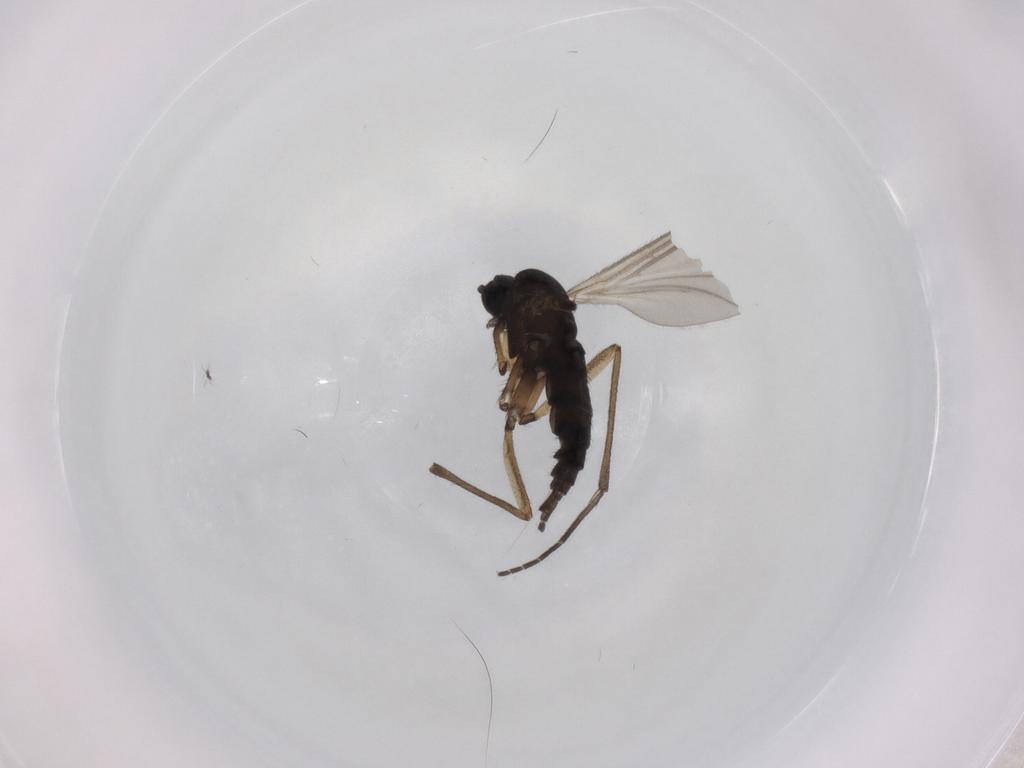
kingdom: Animalia
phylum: Arthropoda
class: Insecta
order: Diptera
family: Sciaridae
